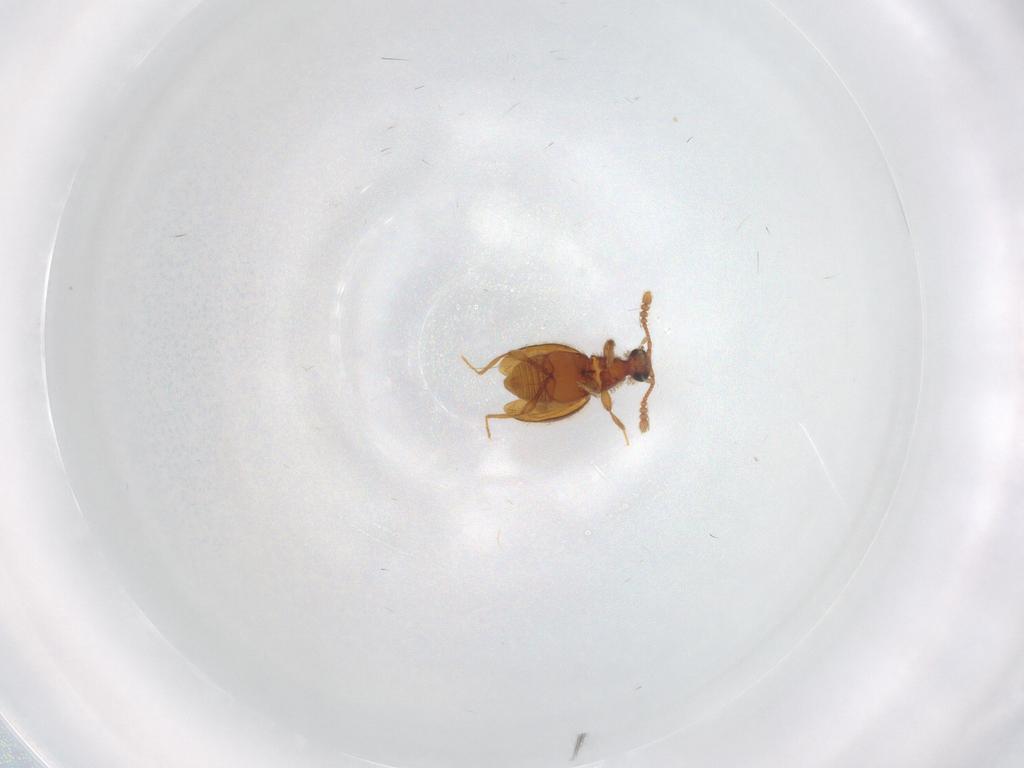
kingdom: Animalia
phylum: Arthropoda
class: Insecta
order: Coleoptera
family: Staphylinidae
